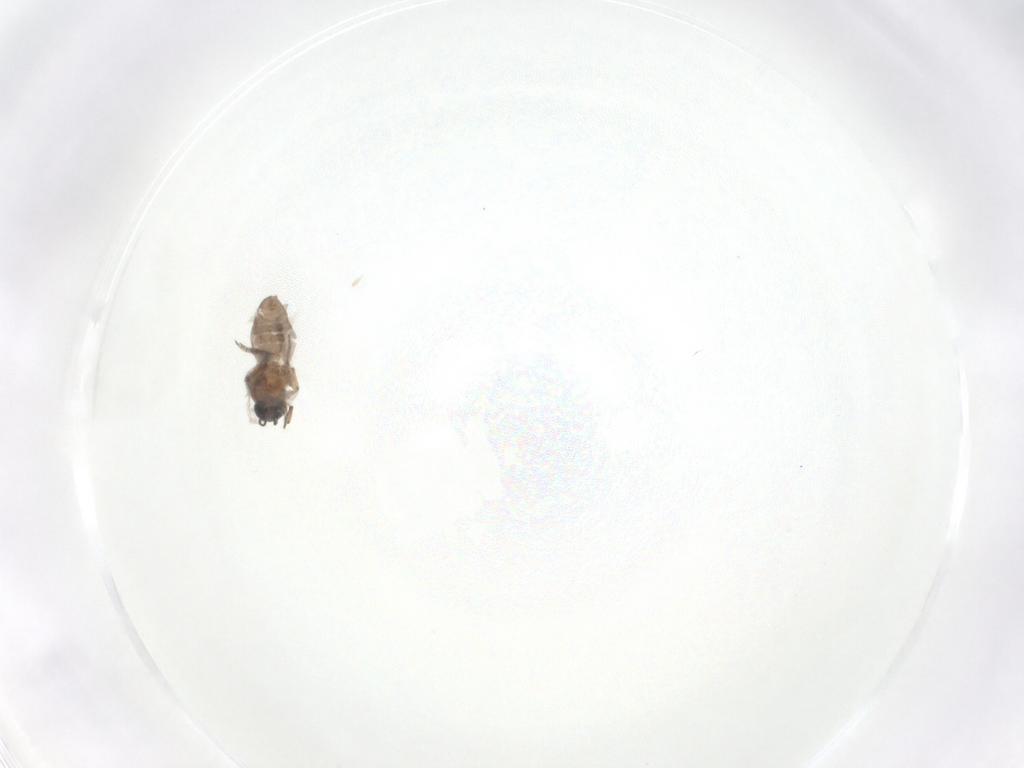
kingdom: Animalia
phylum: Arthropoda
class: Insecta
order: Diptera
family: Ceratopogonidae
